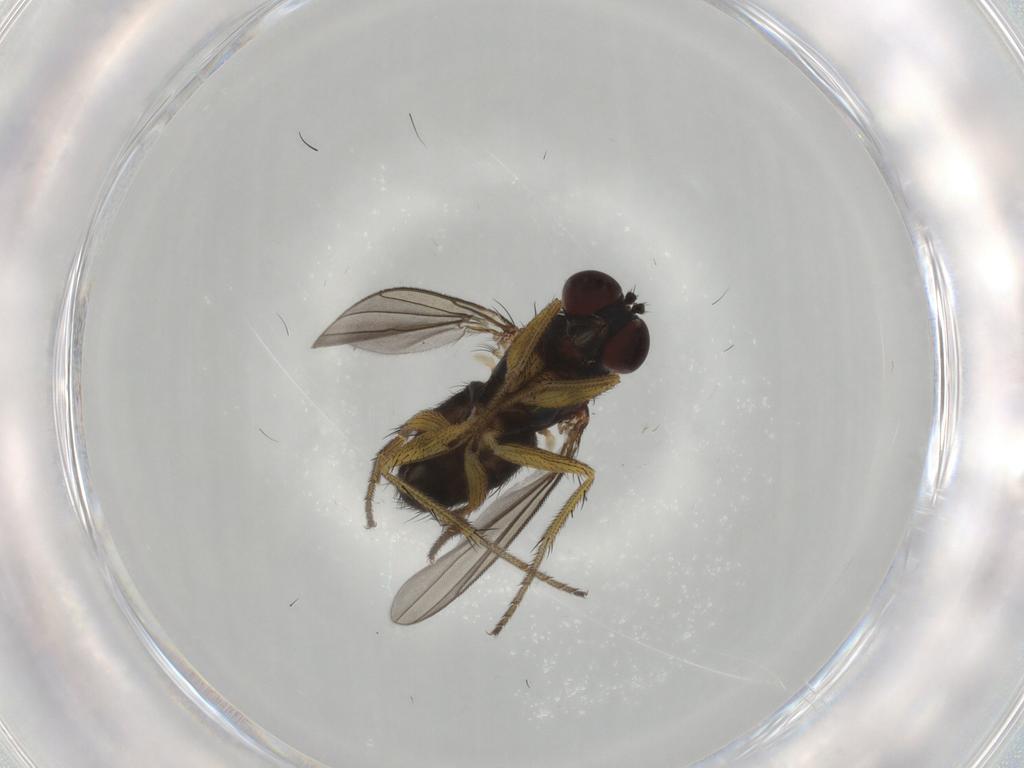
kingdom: Animalia
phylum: Arthropoda
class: Insecta
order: Diptera
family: Dolichopodidae
